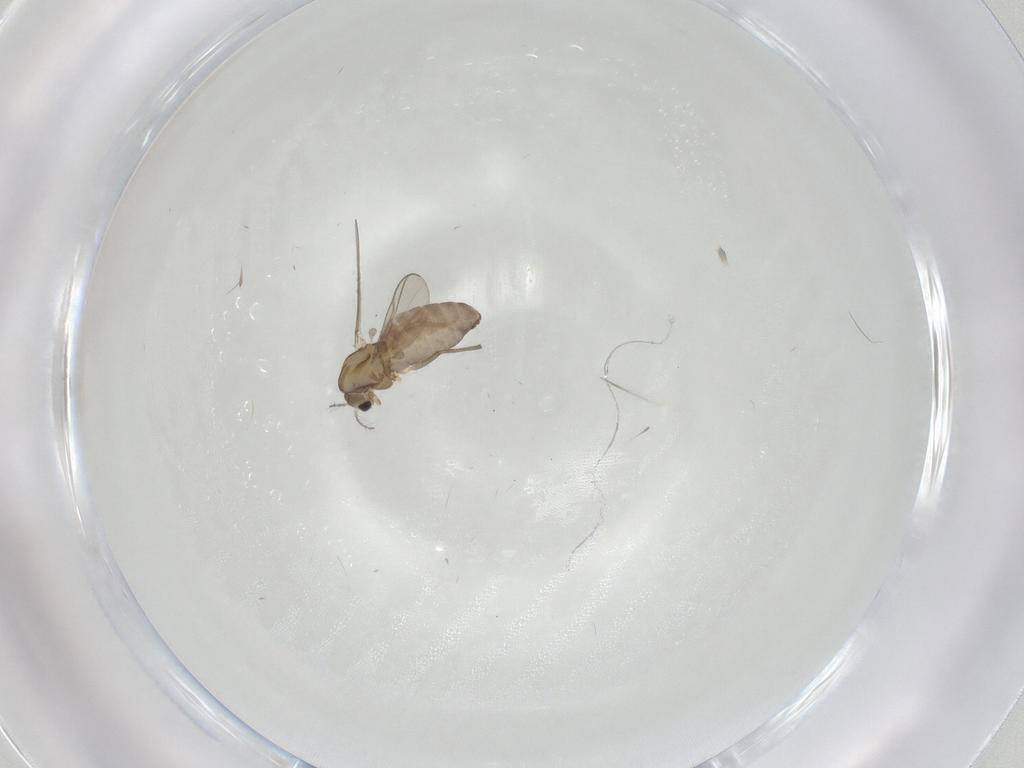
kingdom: Animalia
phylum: Arthropoda
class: Insecta
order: Diptera
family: Chironomidae
